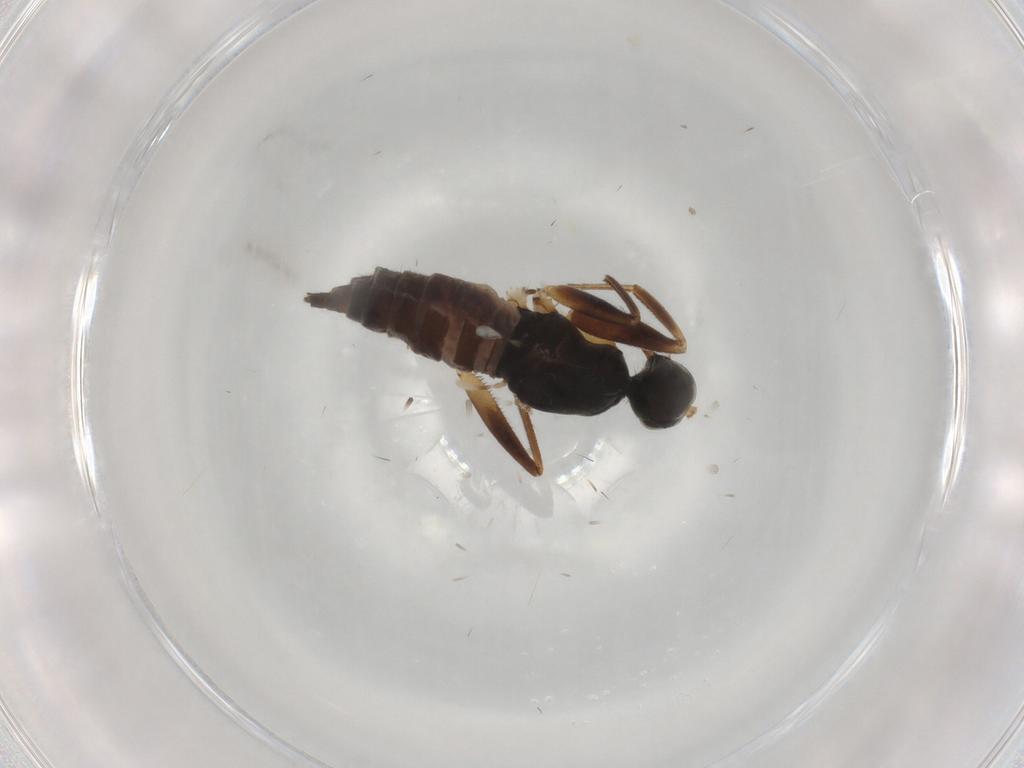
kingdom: Animalia
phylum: Arthropoda
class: Insecta
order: Diptera
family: Hybotidae
